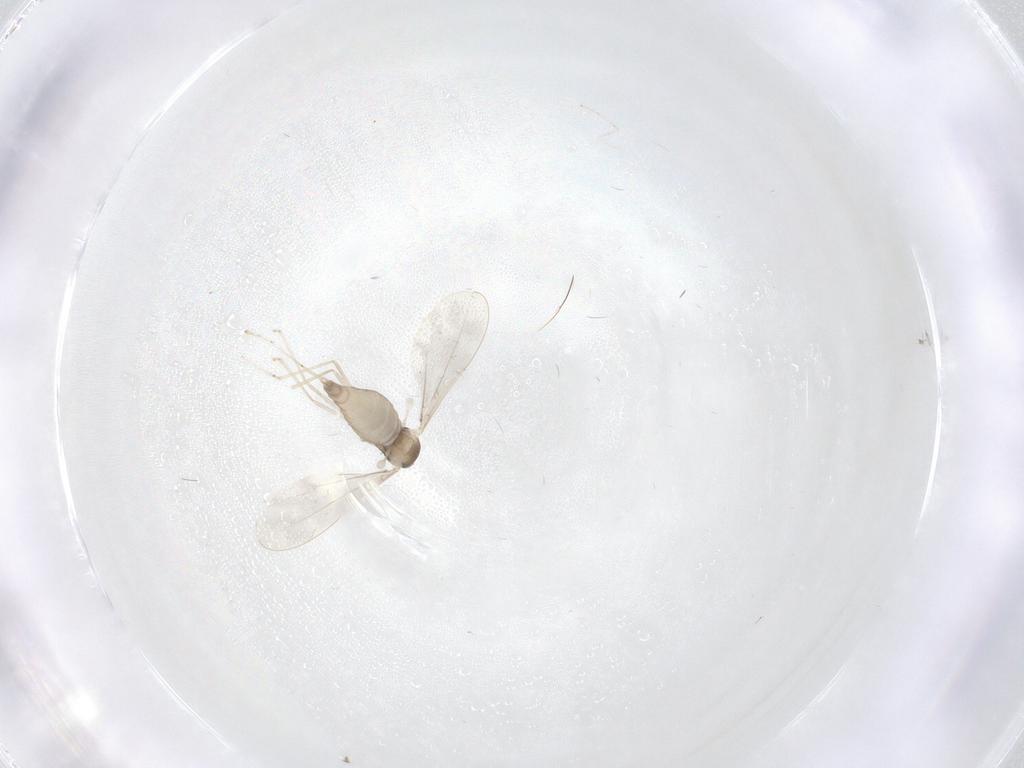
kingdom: Animalia
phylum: Arthropoda
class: Insecta
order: Diptera
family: Cecidomyiidae
